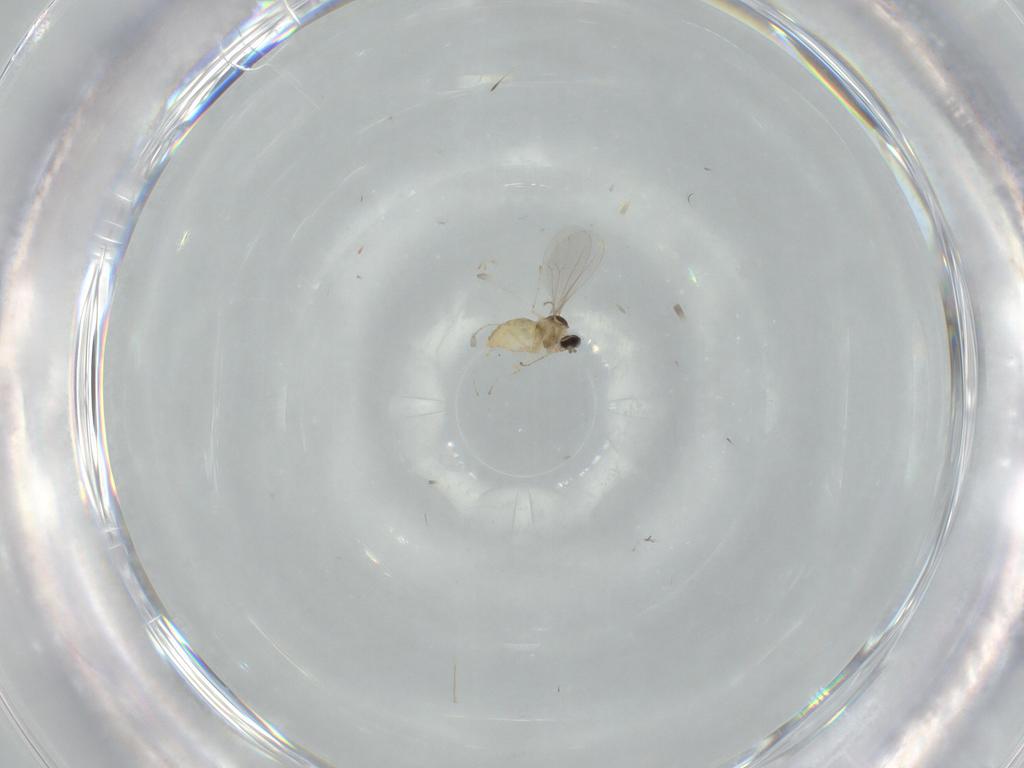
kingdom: Animalia
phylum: Arthropoda
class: Insecta
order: Diptera
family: Cecidomyiidae
